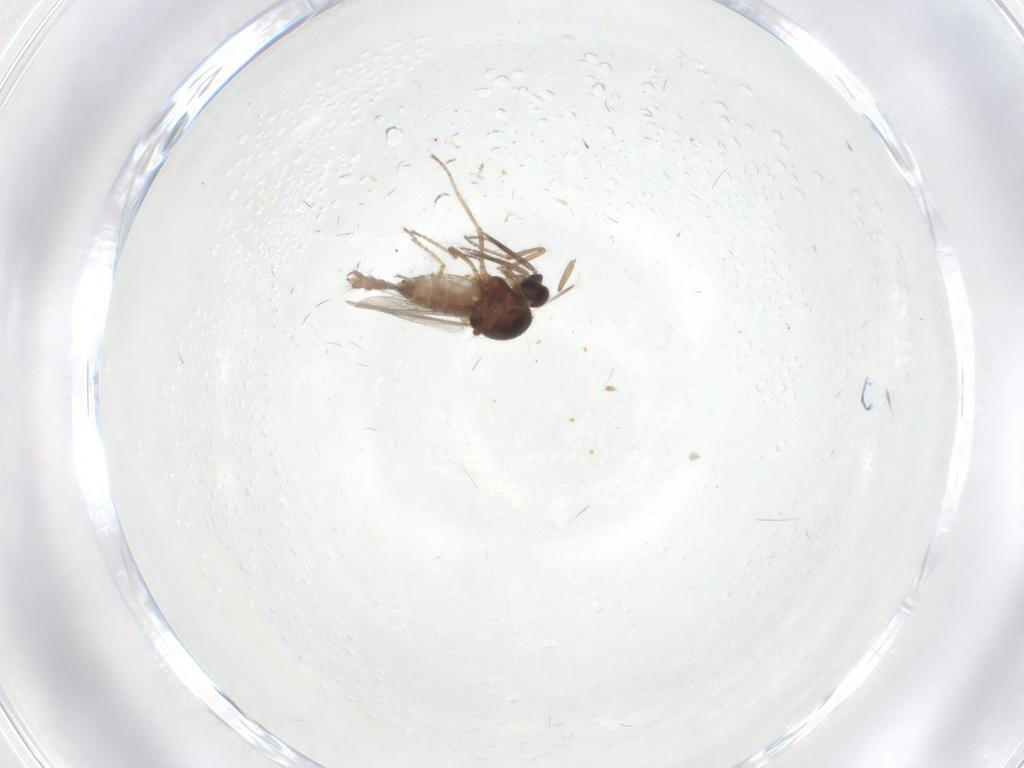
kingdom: Animalia
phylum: Arthropoda
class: Insecta
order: Diptera
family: Ceratopogonidae
